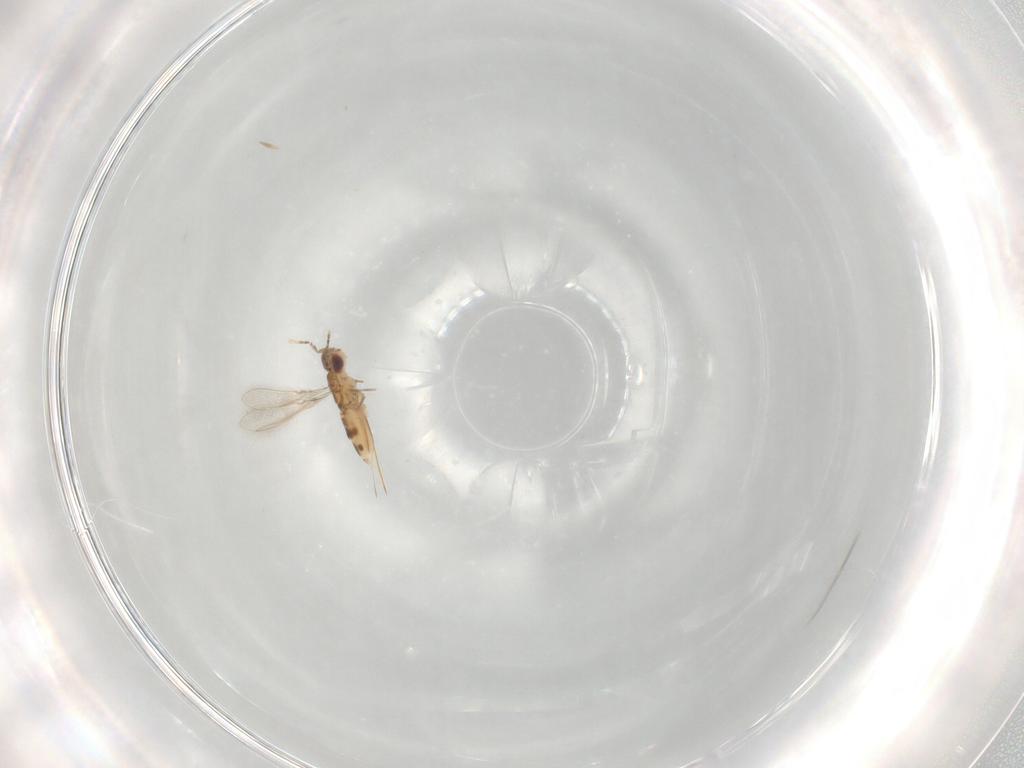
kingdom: Animalia
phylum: Arthropoda
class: Insecta
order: Hymenoptera
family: Mymaridae
